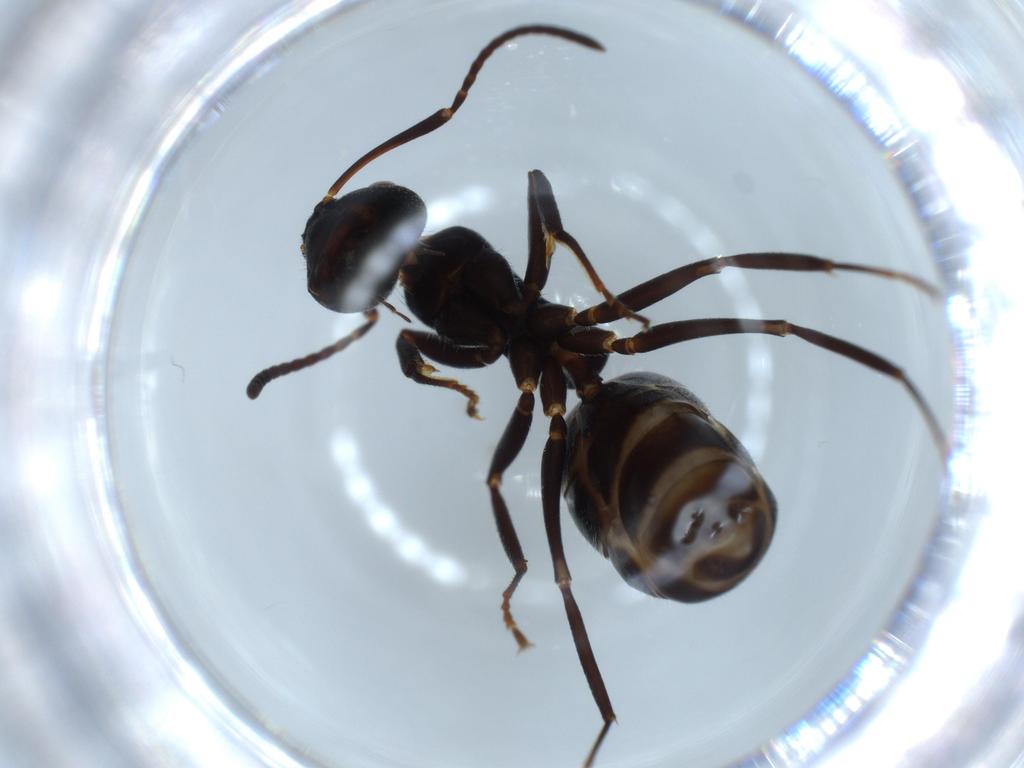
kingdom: Animalia
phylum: Arthropoda
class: Insecta
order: Hymenoptera
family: Formicidae
